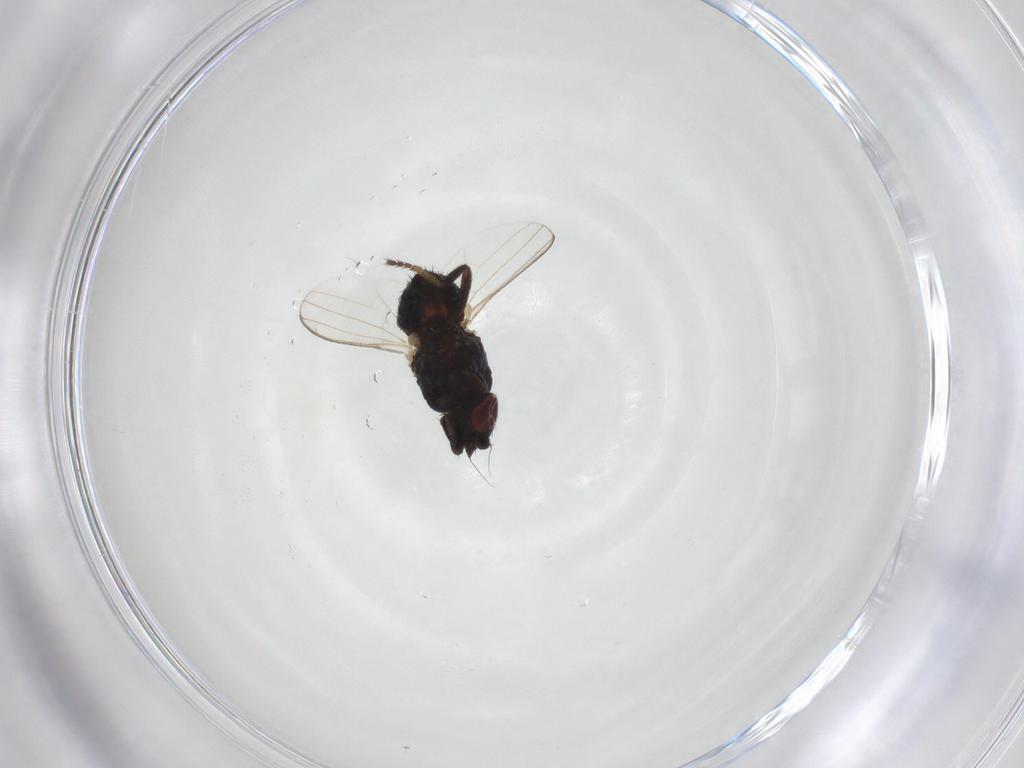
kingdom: Animalia
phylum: Arthropoda
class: Insecta
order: Diptera
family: Milichiidae
